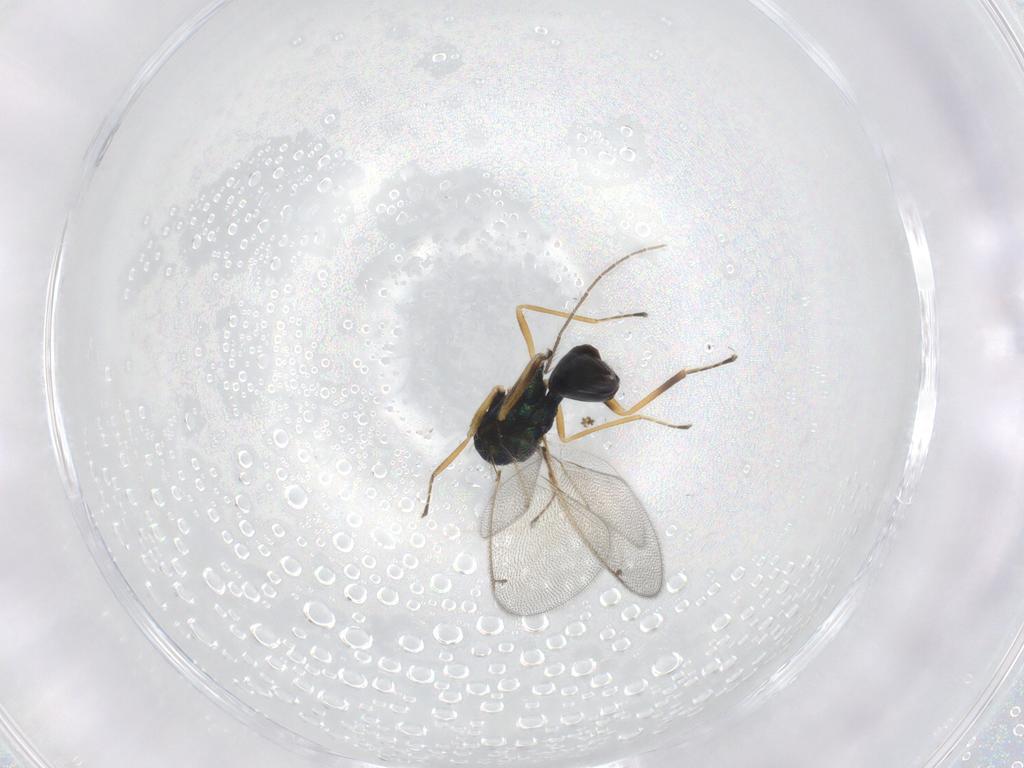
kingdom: Animalia
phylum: Arthropoda
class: Insecta
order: Hymenoptera
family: Eulophidae
